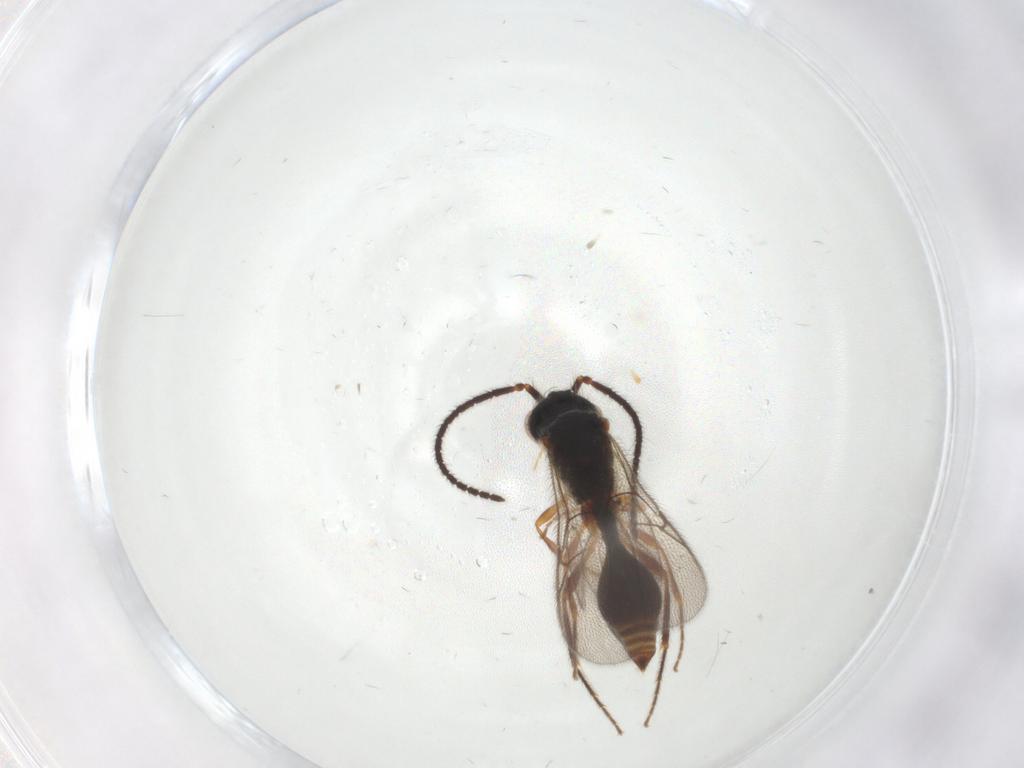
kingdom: Animalia
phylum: Arthropoda
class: Insecta
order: Hymenoptera
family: Diapriidae
